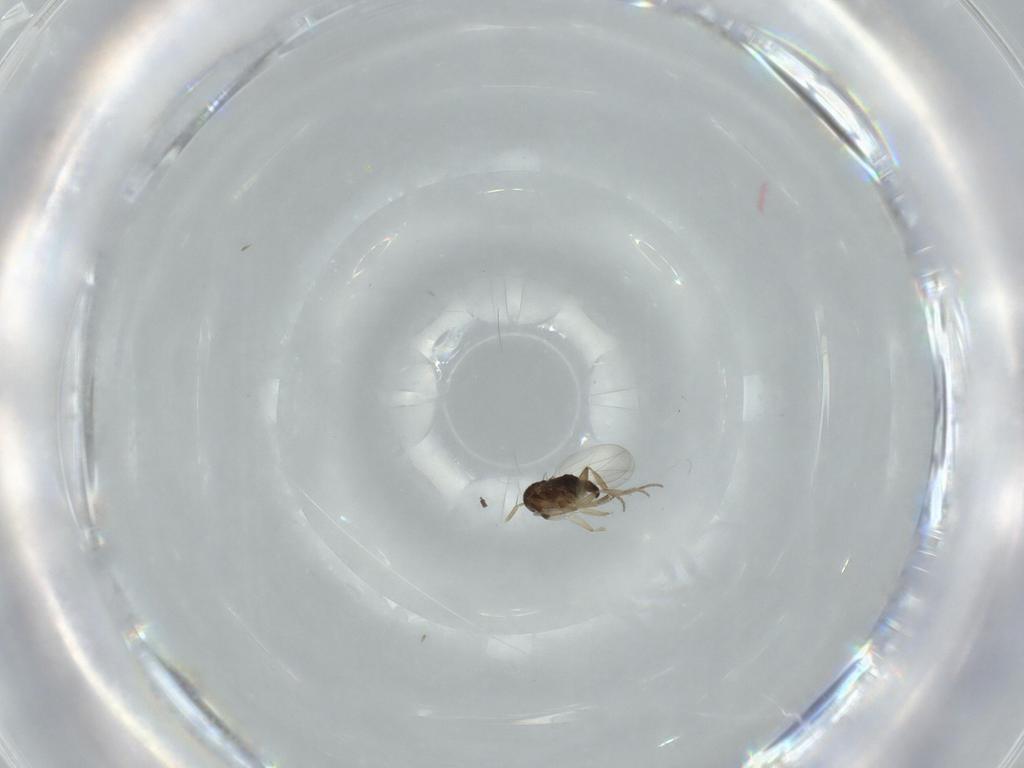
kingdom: Animalia
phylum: Arthropoda
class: Insecta
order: Diptera
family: Phoridae
